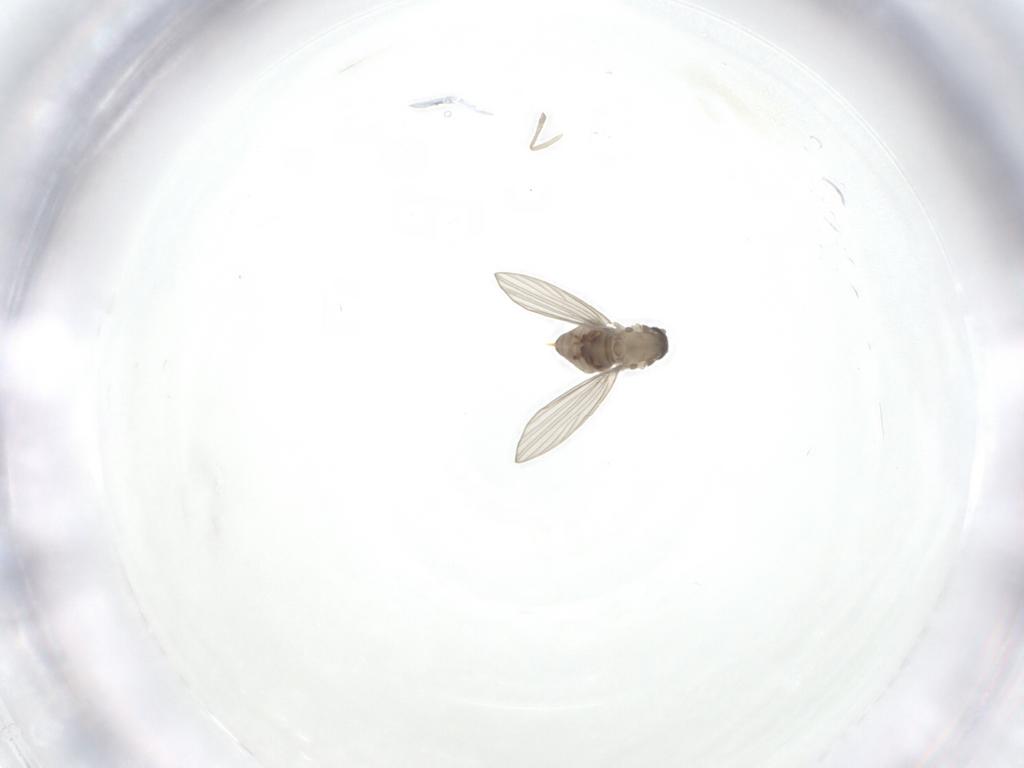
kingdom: Animalia
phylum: Arthropoda
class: Insecta
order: Diptera
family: Psychodidae
